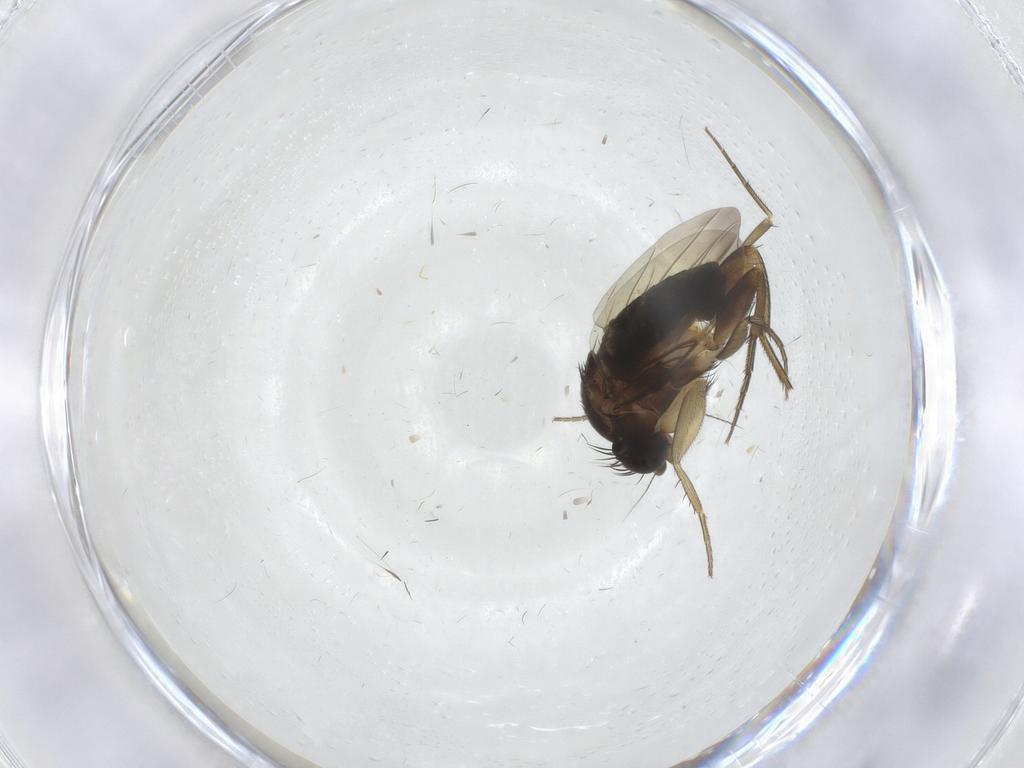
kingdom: Animalia
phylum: Arthropoda
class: Insecta
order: Diptera
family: Phoridae
